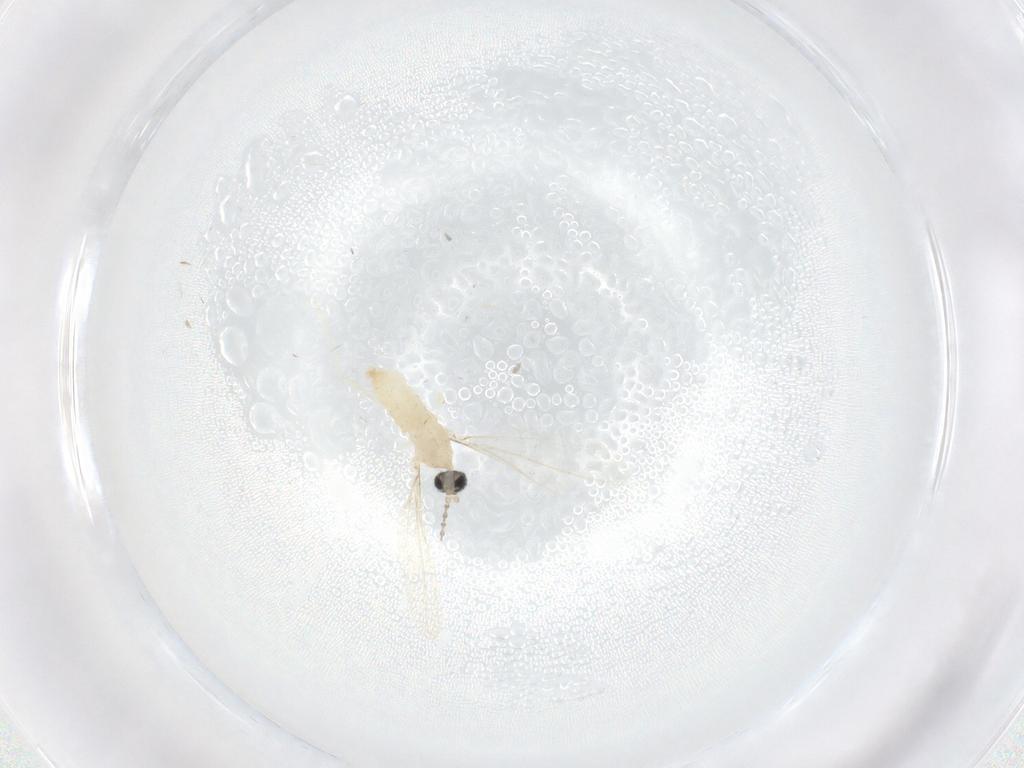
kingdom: Animalia
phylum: Arthropoda
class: Insecta
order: Diptera
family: Cecidomyiidae
